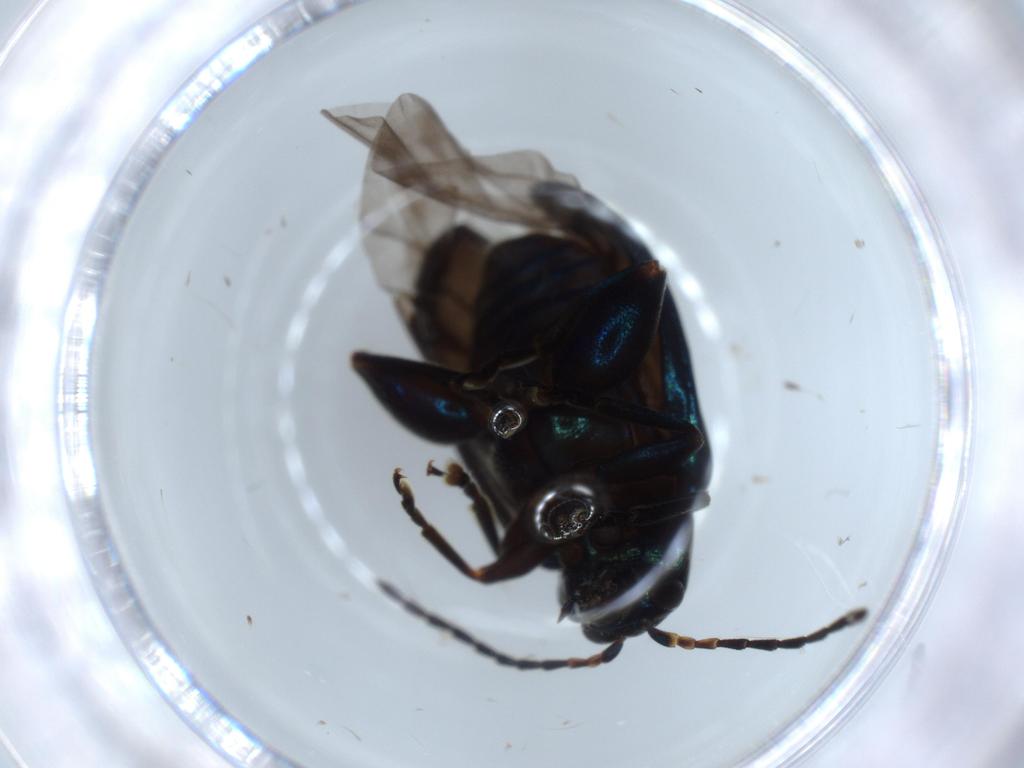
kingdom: Animalia
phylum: Arthropoda
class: Insecta
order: Coleoptera
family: Chrysomelidae
